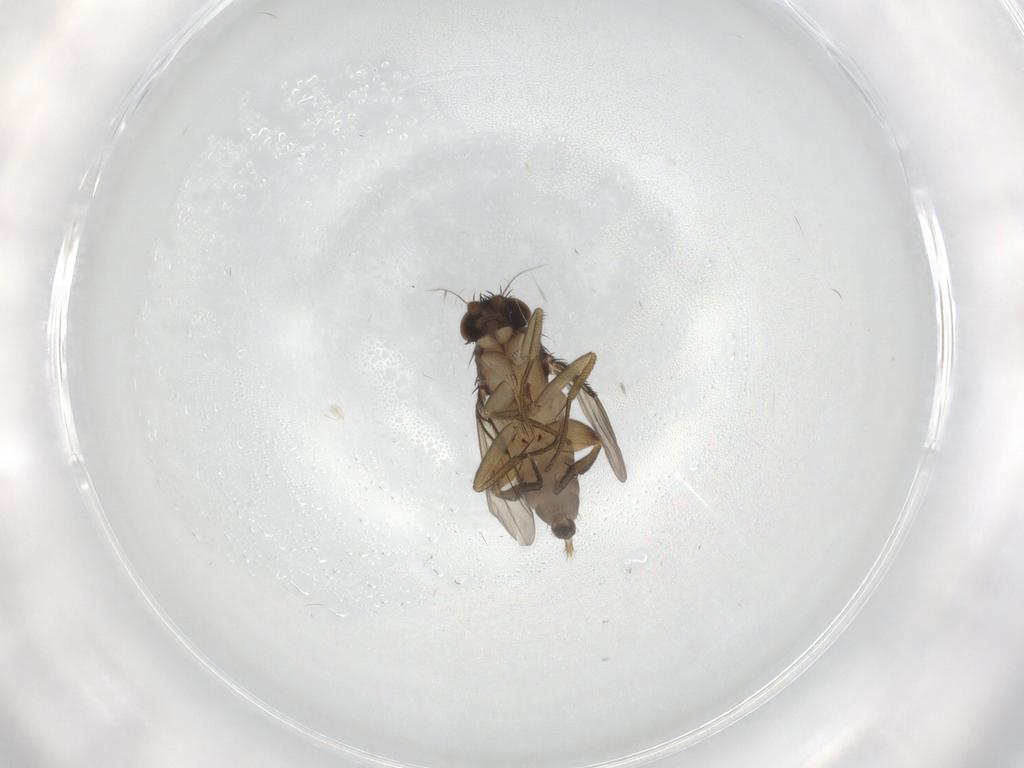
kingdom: Animalia
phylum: Arthropoda
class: Insecta
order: Diptera
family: Phoridae
